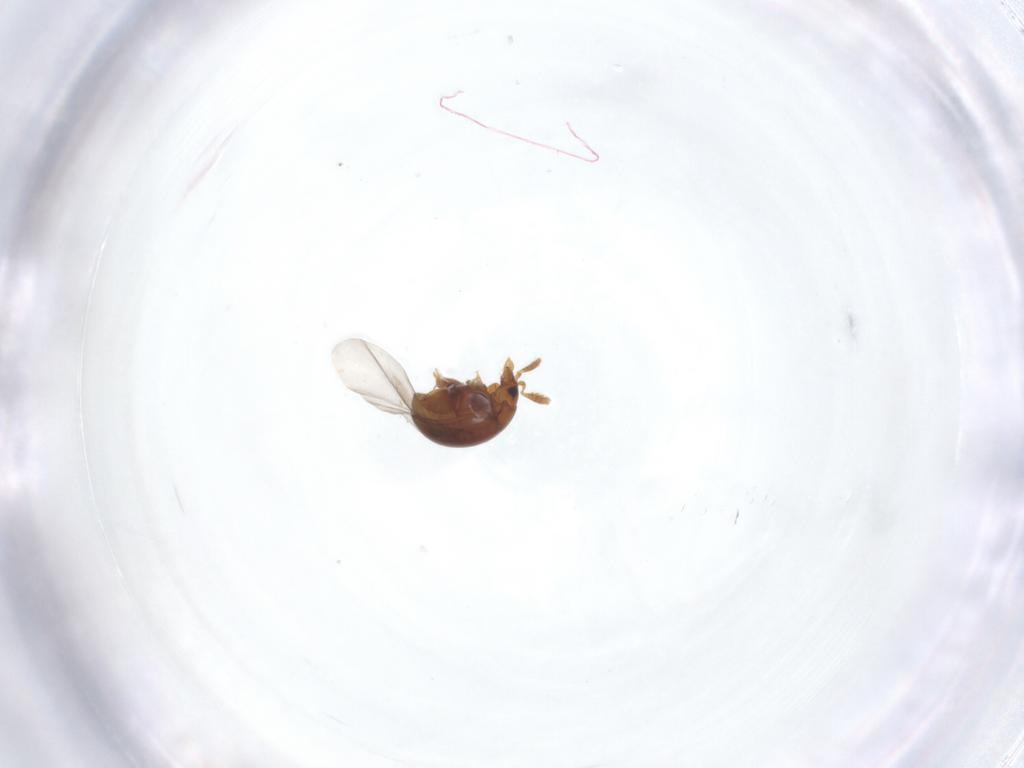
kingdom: Animalia
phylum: Arthropoda
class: Insecta
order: Coleoptera
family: Chrysomelidae
